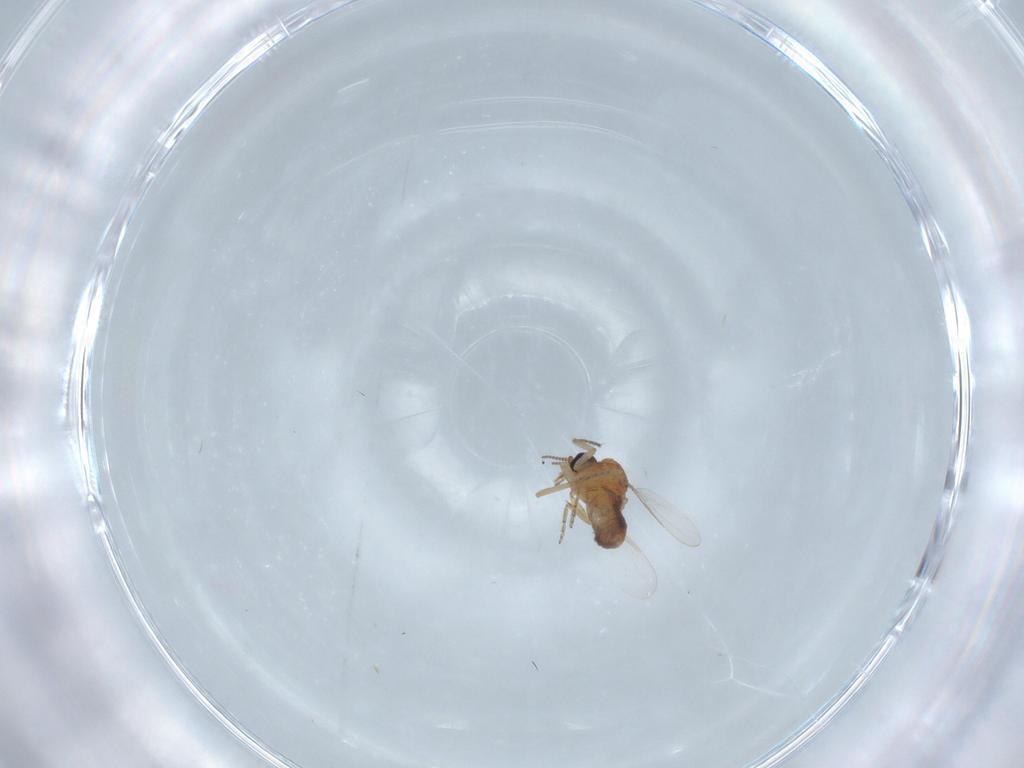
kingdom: Animalia
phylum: Arthropoda
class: Insecta
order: Diptera
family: Ceratopogonidae
